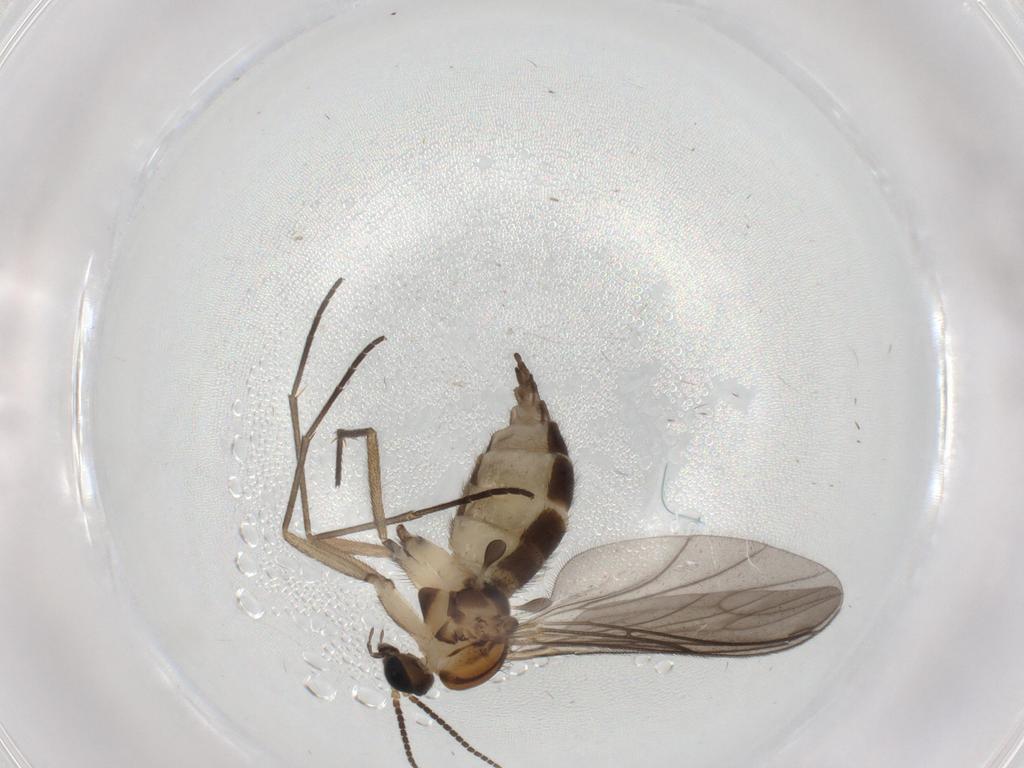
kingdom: Animalia
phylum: Arthropoda
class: Insecta
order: Diptera
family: Sciaridae
